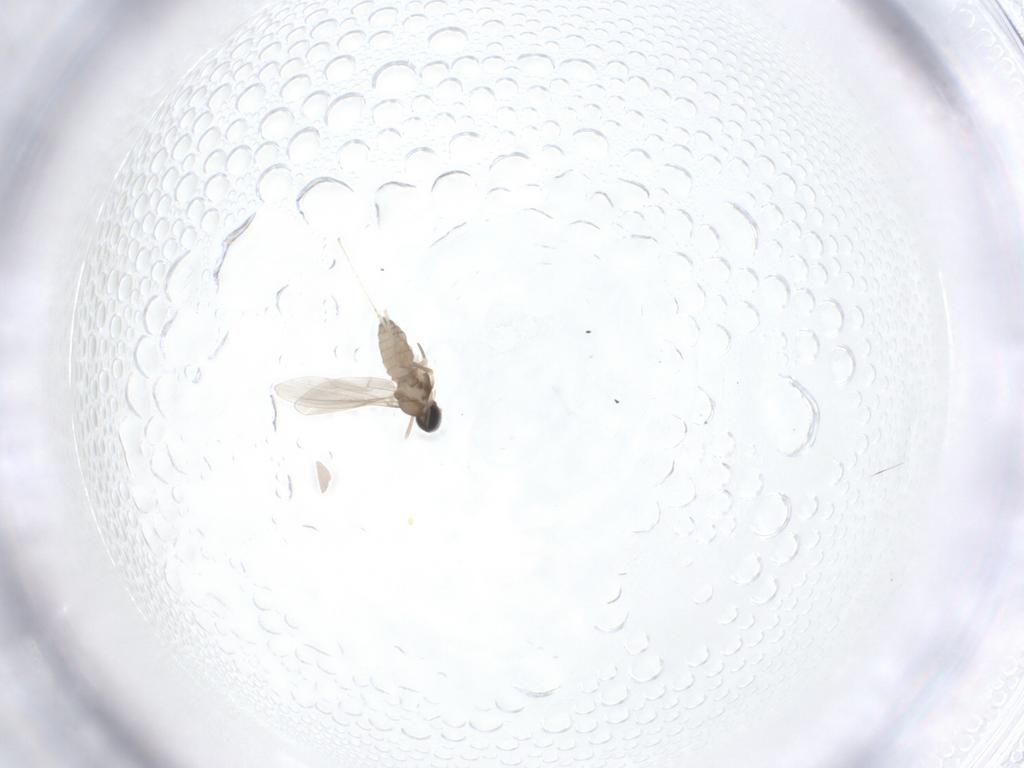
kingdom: Animalia
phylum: Arthropoda
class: Insecta
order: Diptera
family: Cecidomyiidae
